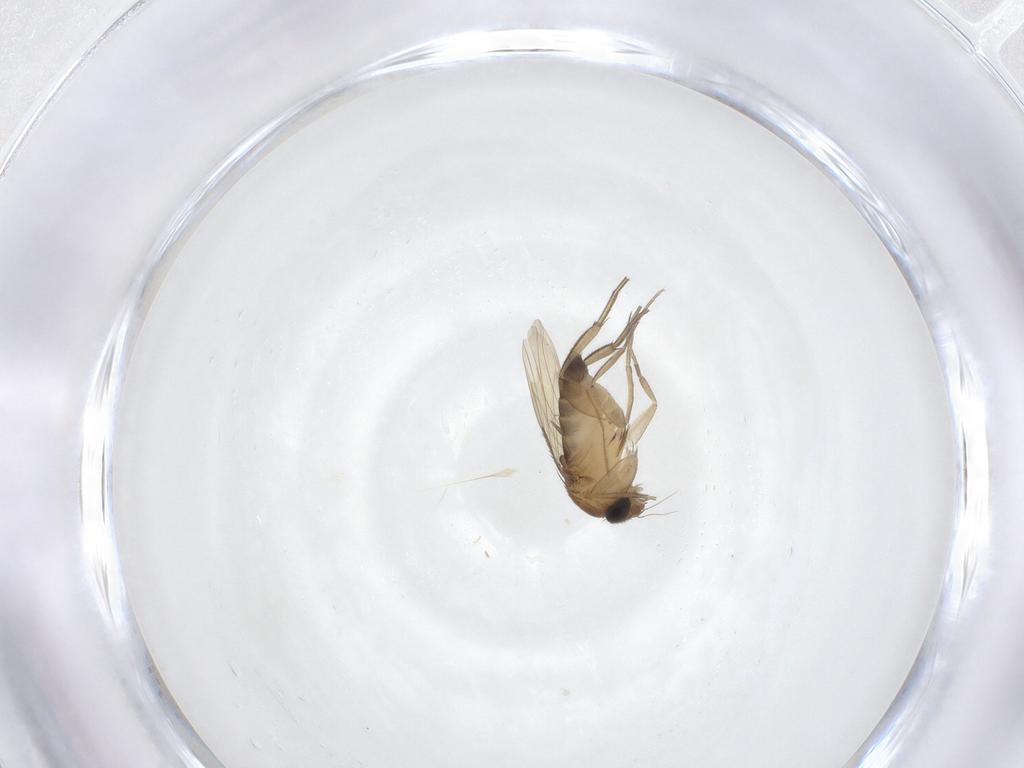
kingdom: Animalia
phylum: Arthropoda
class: Insecta
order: Diptera
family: Phoridae
